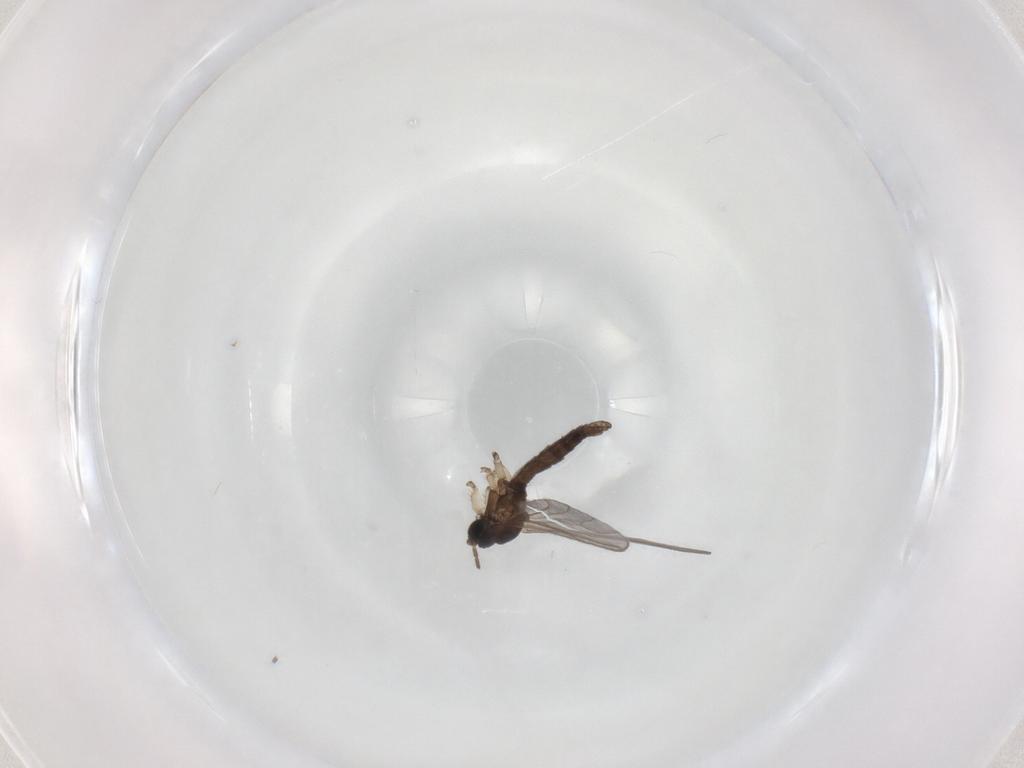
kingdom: Animalia
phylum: Arthropoda
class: Insecta
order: Diptera
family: Sciaridae
